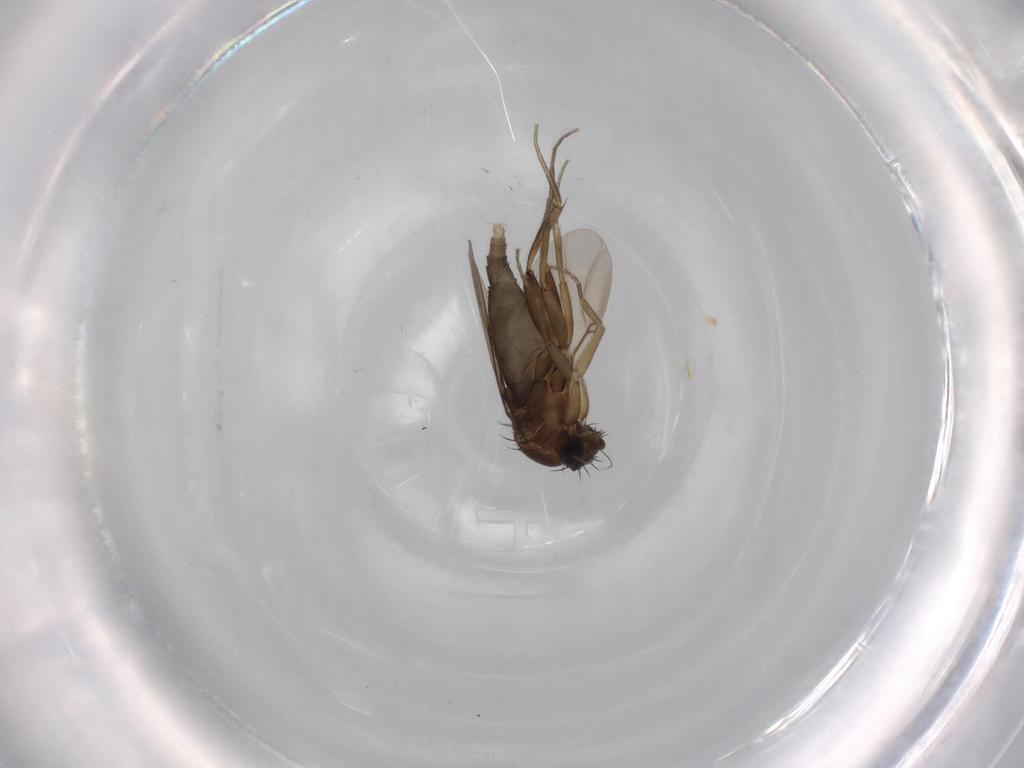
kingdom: Animalia
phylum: Arthropoda
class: Insecta
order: Diptera
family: Phoridae
